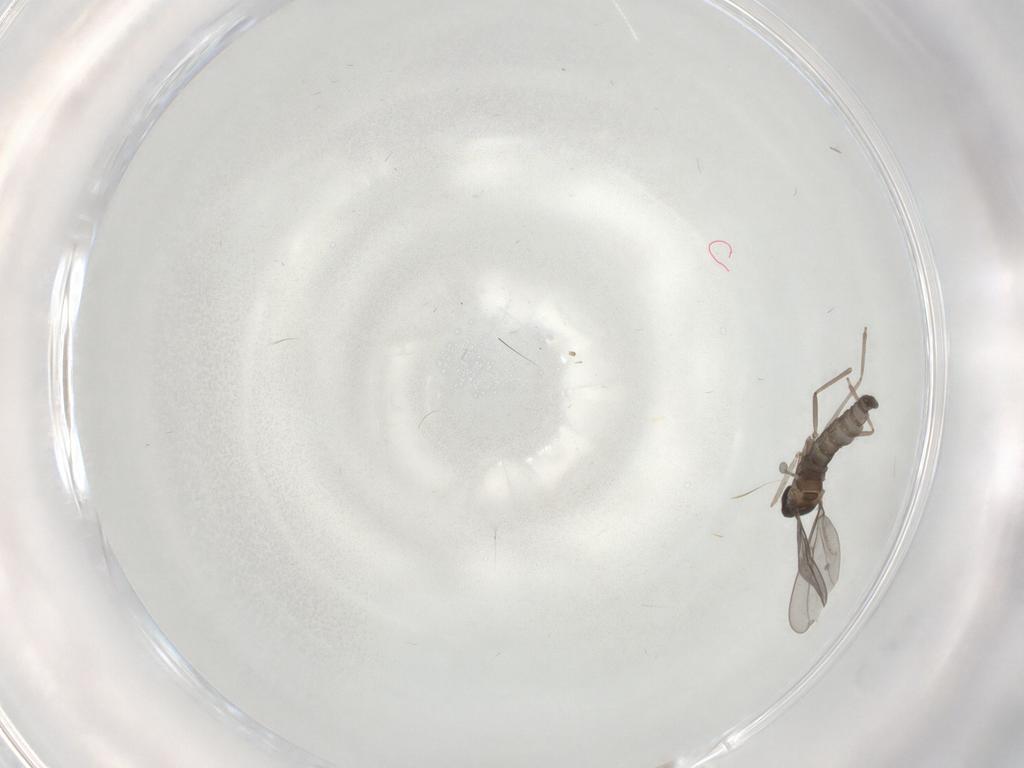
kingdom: Animalia
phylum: Arthropoda
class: Insecta
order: Diptera
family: Cecidomyiidae
